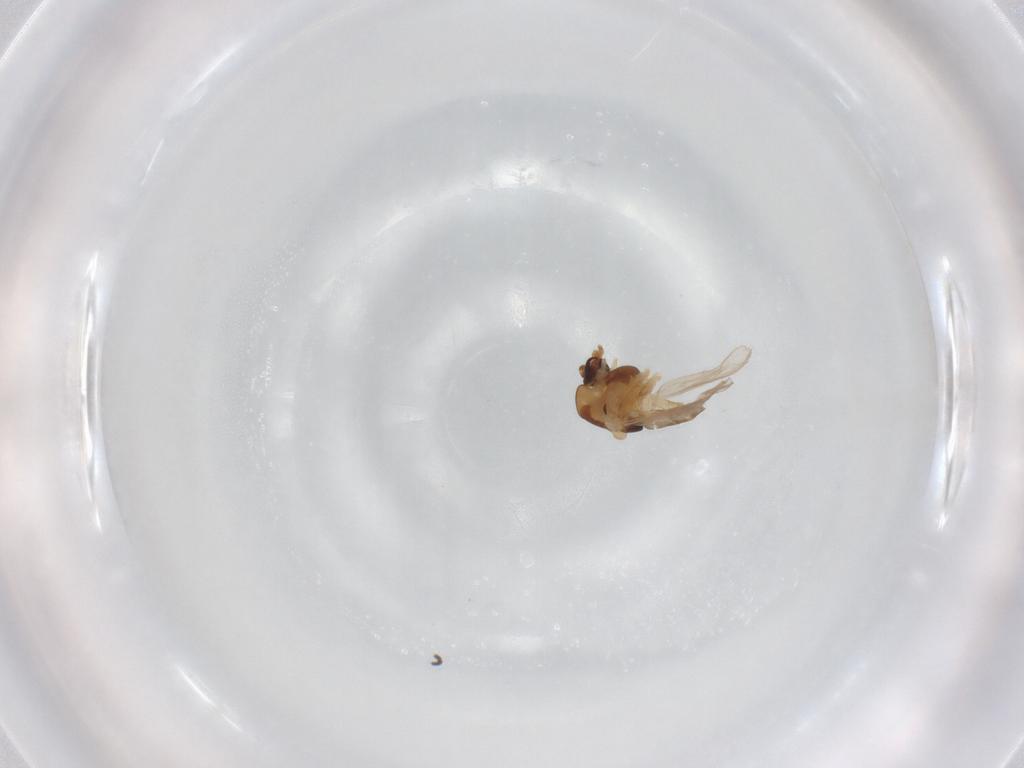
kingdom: Animalia
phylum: Arthropoda
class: Insecta
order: Diptera
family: Chironomidae
